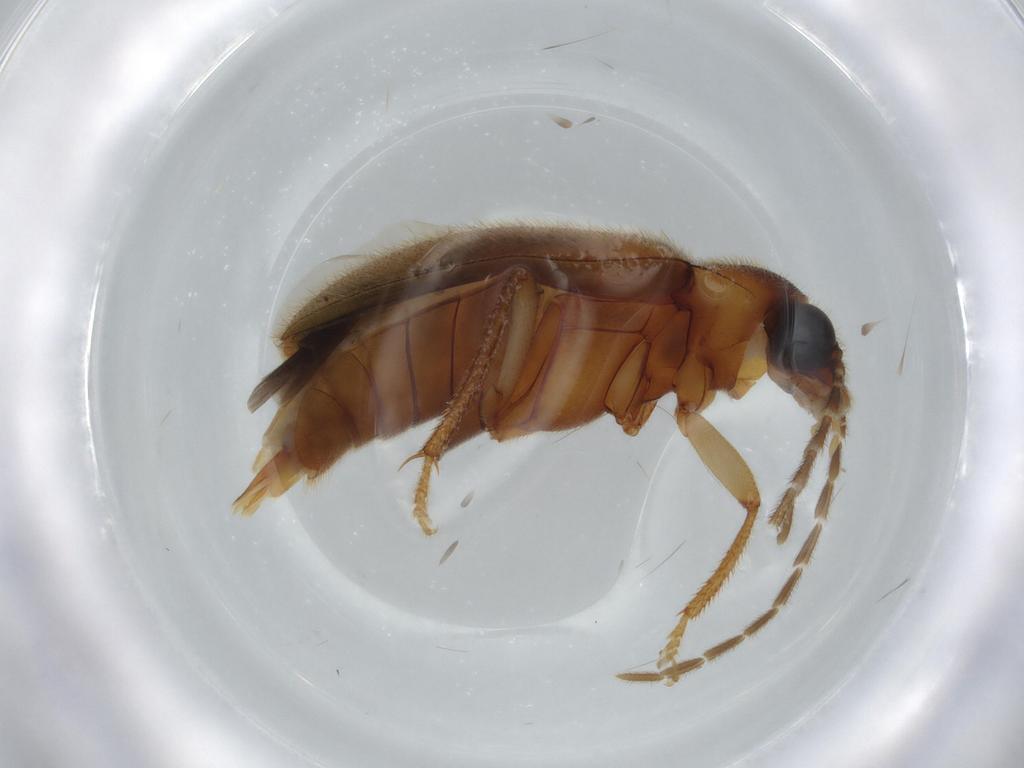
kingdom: Animalia
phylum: Arthropoda
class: Insecta
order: Coleoptera
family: Ptilodactylidae
